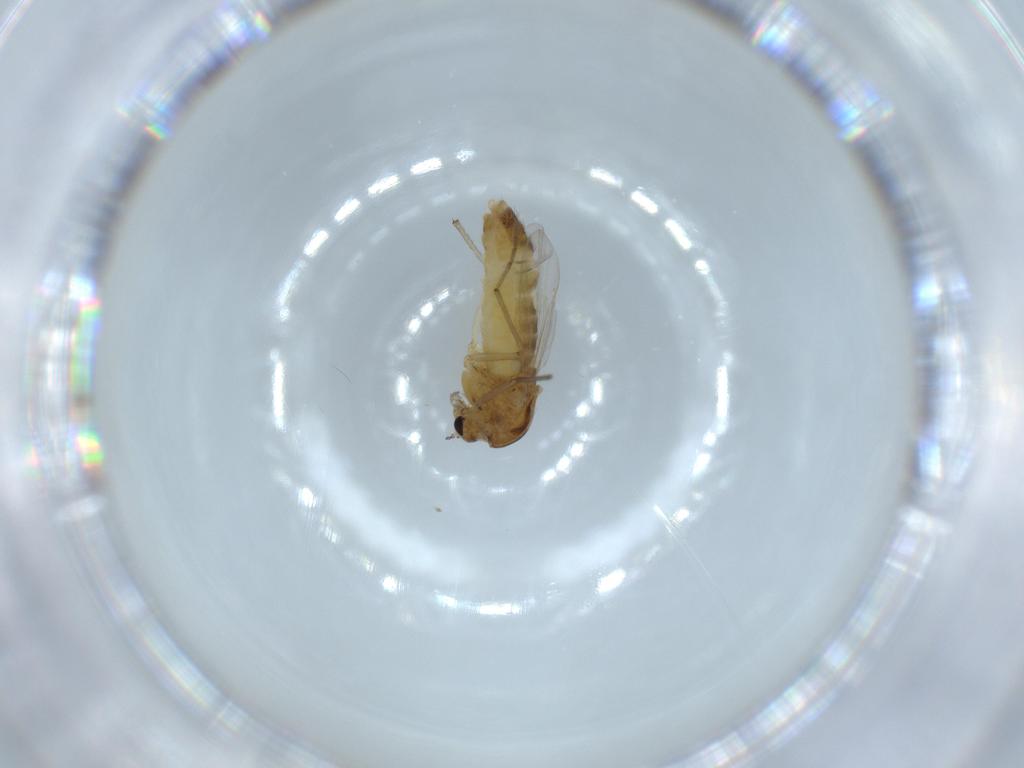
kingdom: Animalia
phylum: Arthropoda
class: Insecta
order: Diptera
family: Chironomidae
